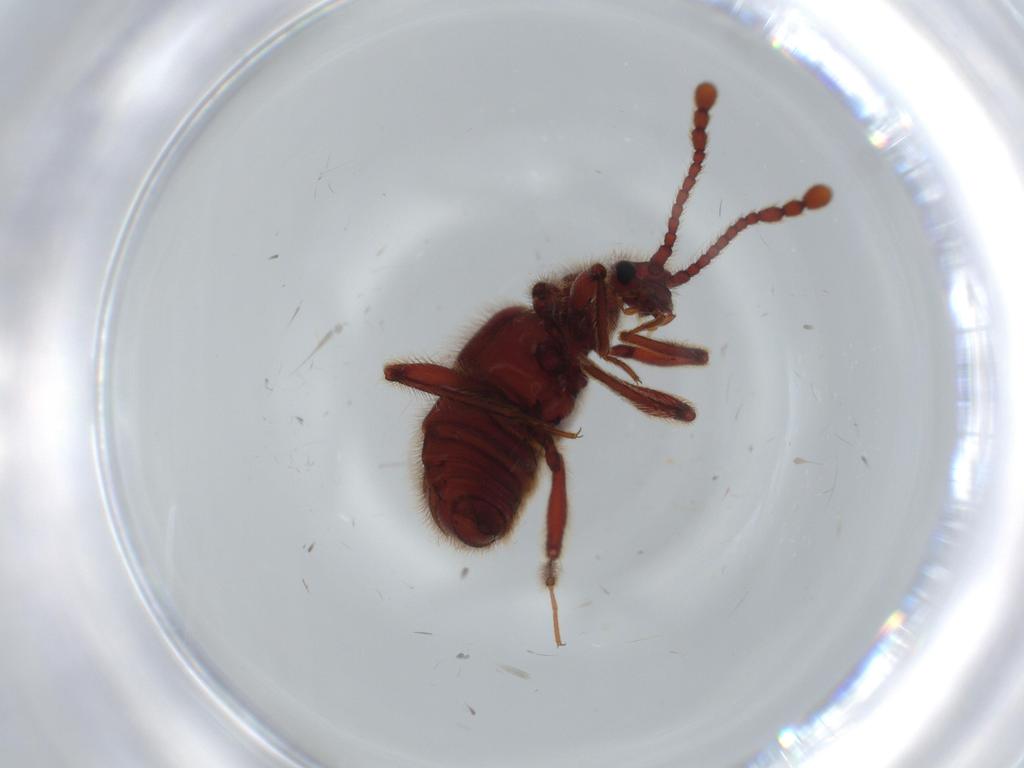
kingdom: Animalia
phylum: Arthropoda
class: Insecta
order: Coleoptera
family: Staphylinidae
